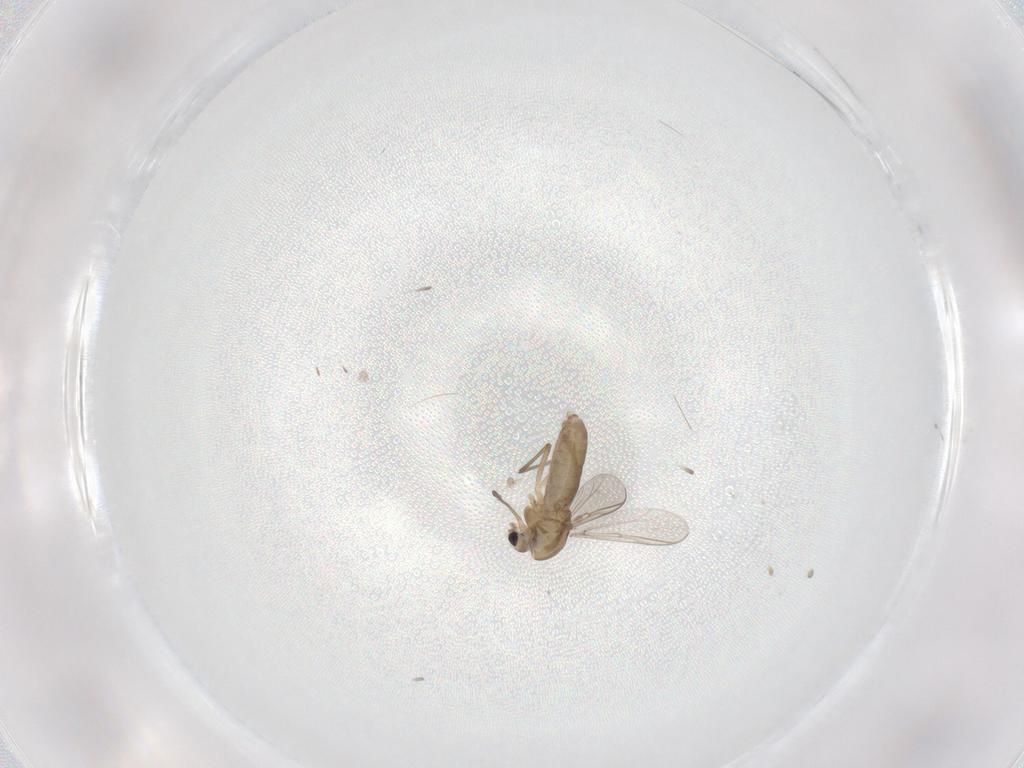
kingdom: Animalia
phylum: Arthropoda
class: Insecta
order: Diptera
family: Chironomidae
